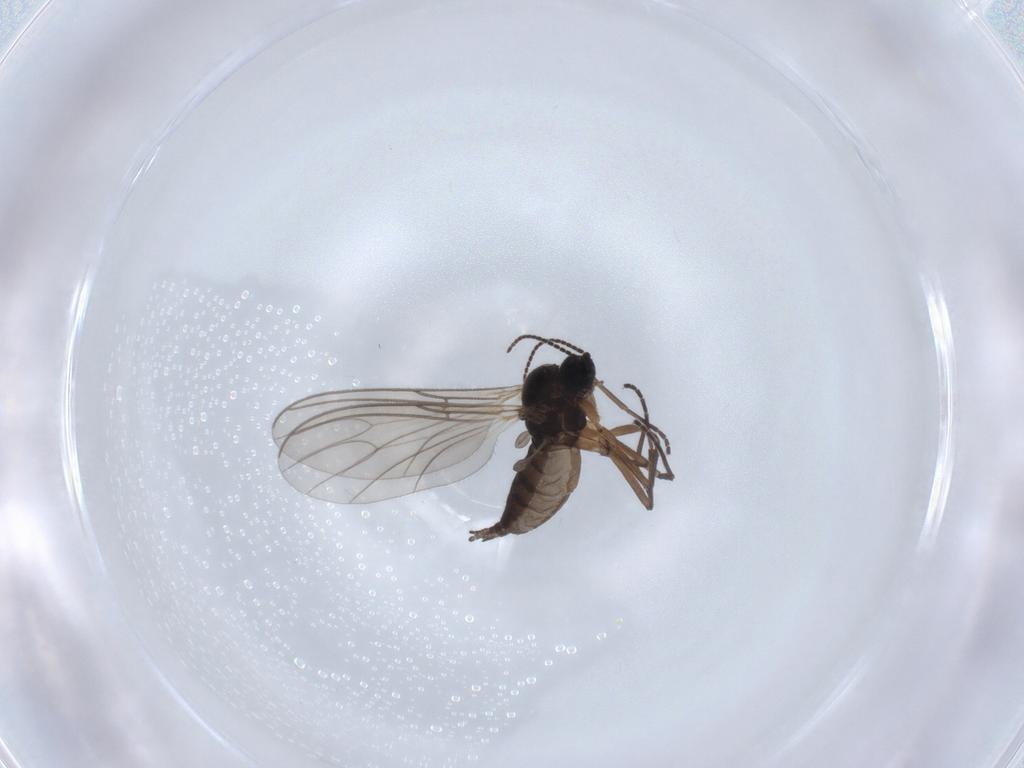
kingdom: Animalia
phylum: Arthropoda
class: Insecta
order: Diptera
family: Sciaridae
